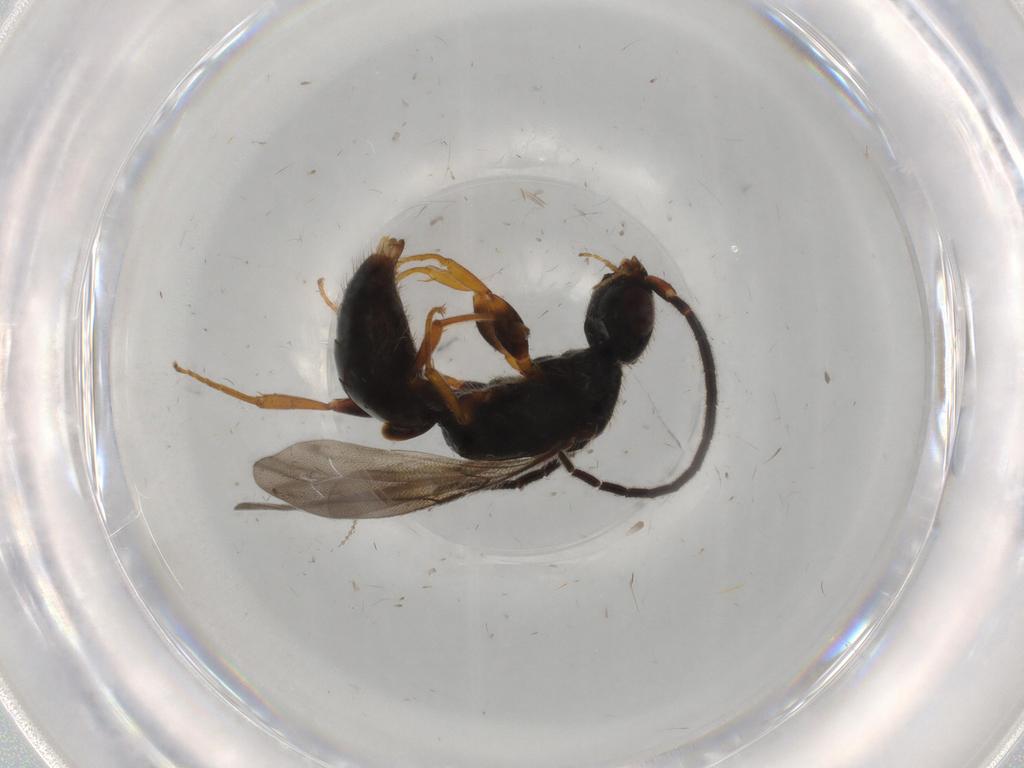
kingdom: Animalia
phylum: Arthropoda
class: Insecta
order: Hymenoptera
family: Bethylidae
